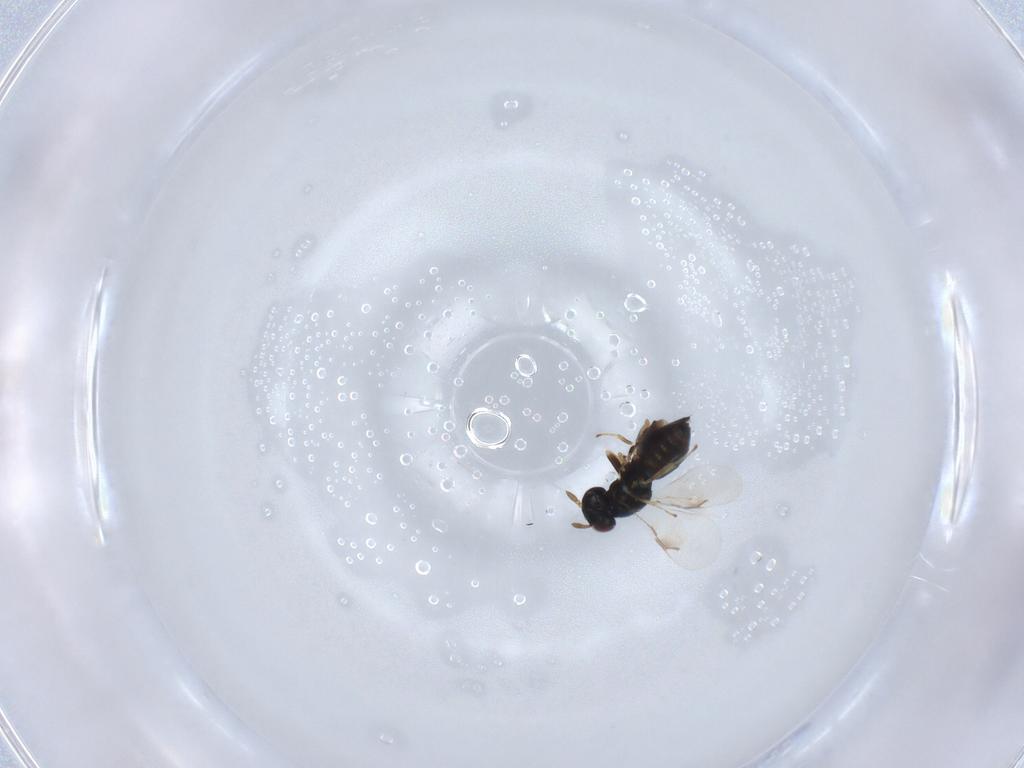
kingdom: Animalia
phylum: Arthropoda
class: Insecta
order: Hymenoptera
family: Pteromalidae
